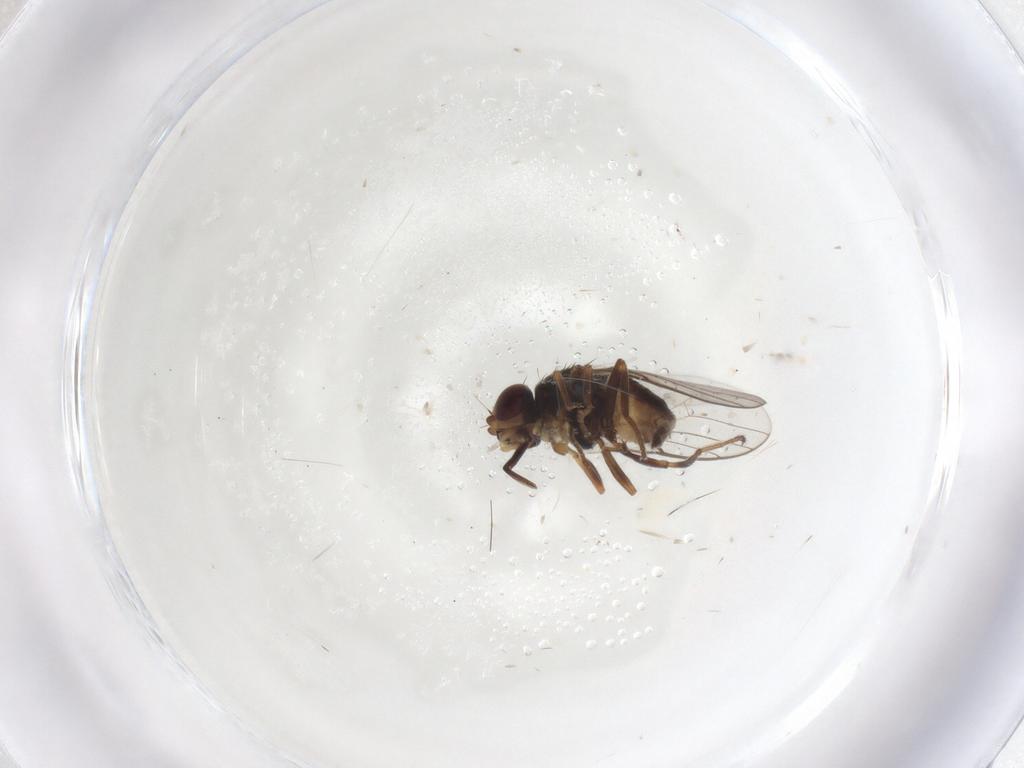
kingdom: Animalia
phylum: Arthropoda
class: Insecta
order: Diptera
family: Chloropidae
